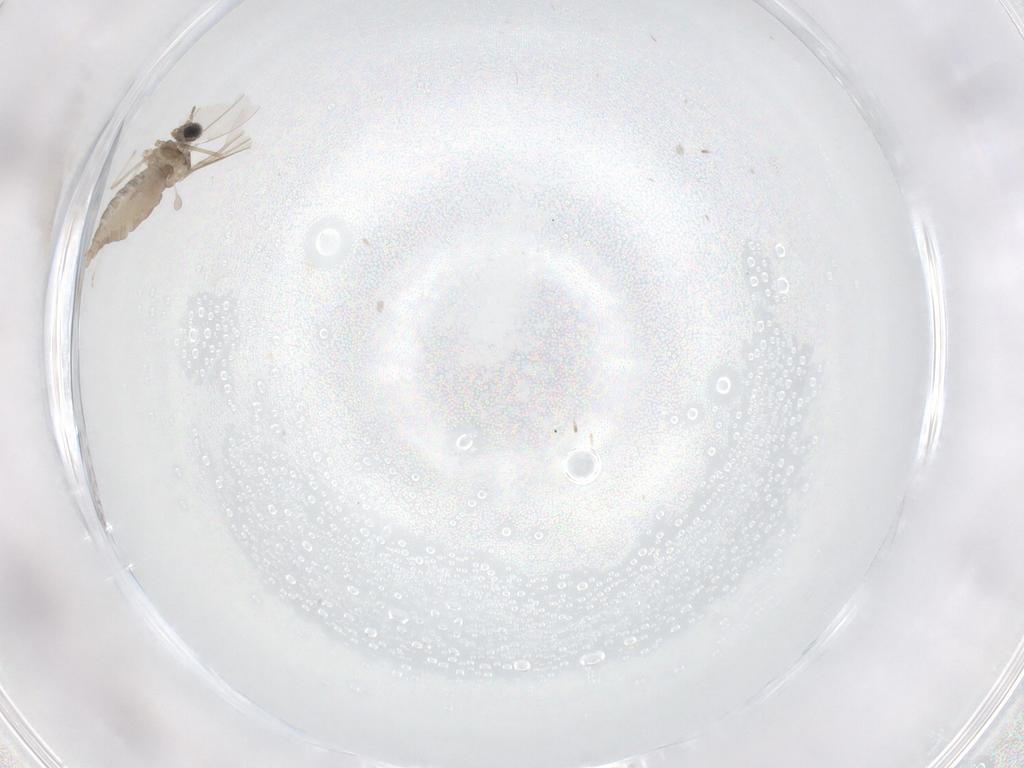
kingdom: Animalia
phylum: Arthropoda
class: Insecta
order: Diptera
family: Cecidomyiidae
